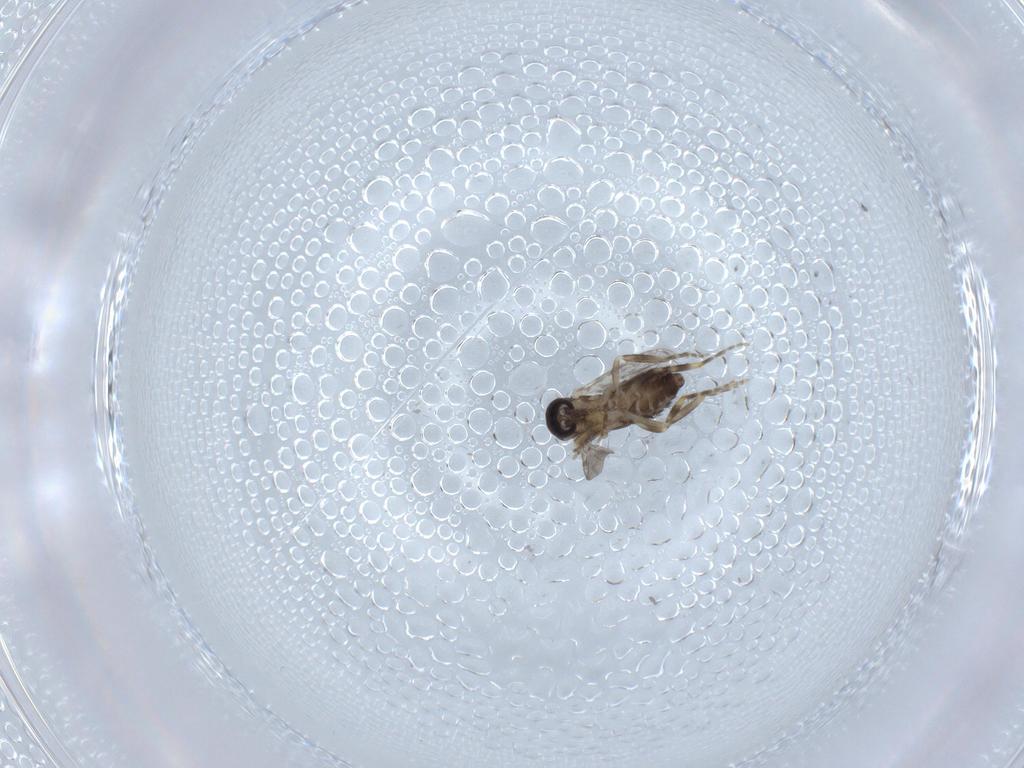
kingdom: Animalia
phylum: Arthropoda
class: Insecta
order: Diptera
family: Ceratopogonidae
